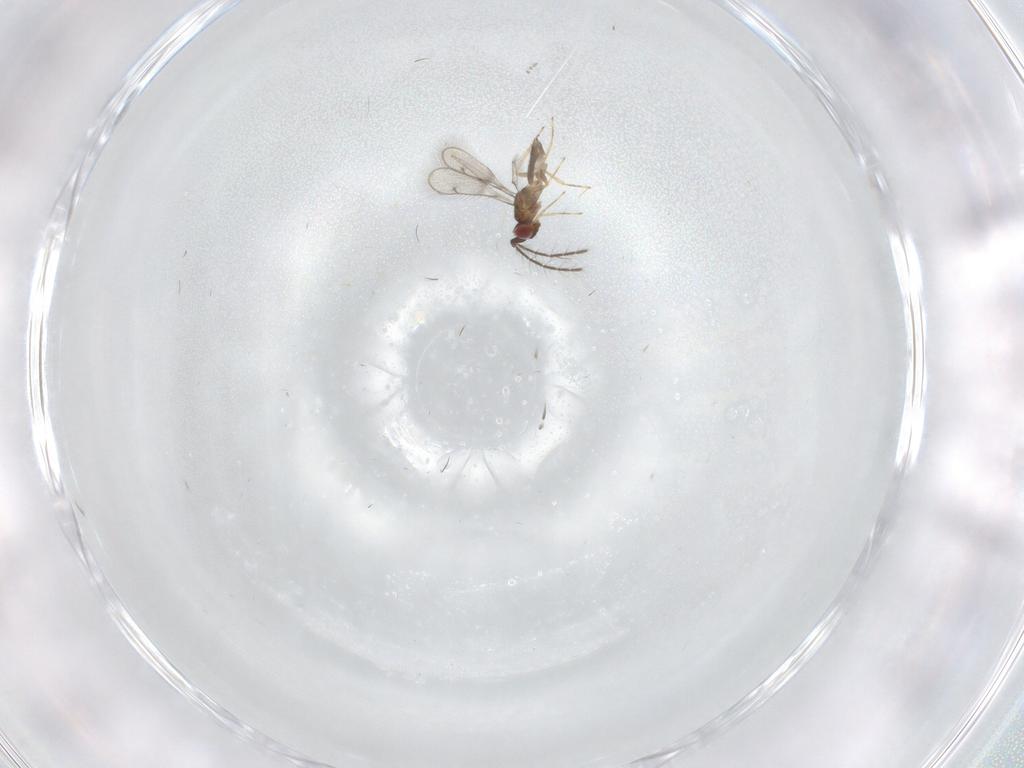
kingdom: Animalia
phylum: Arthropoda
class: Insecta
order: Hymenoptera
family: Eulophidae
